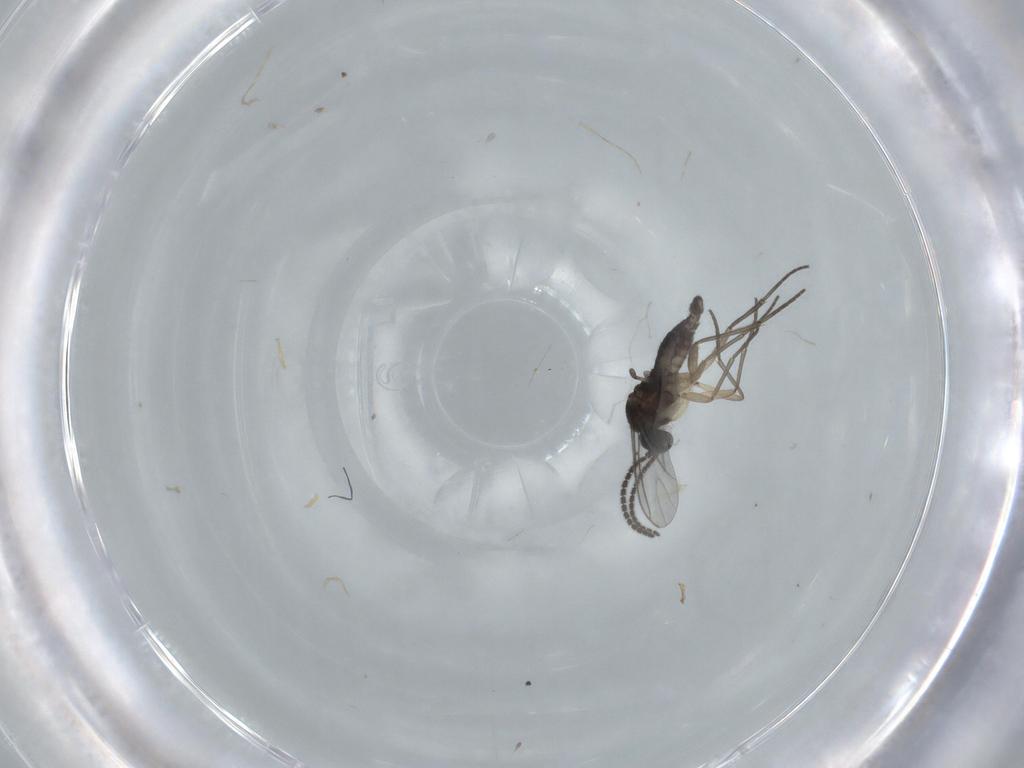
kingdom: Animalia
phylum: Arthropoda
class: Insecta
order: Diptera
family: Sciaridae
